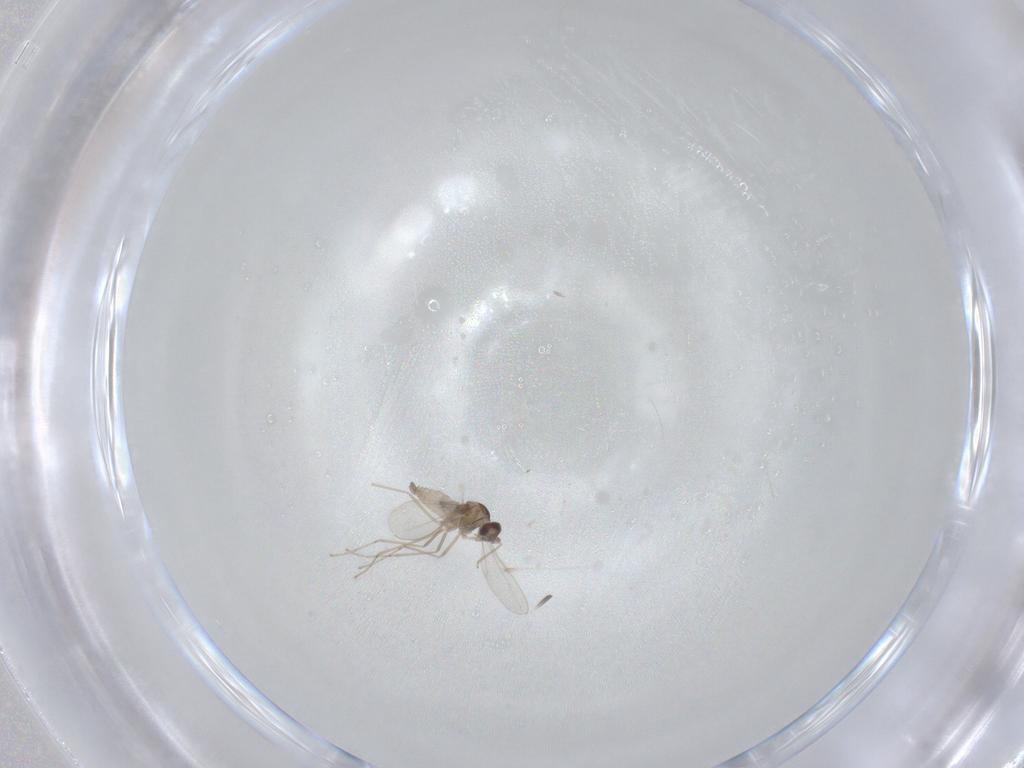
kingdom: Animalia
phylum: Arthropoda
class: Insecta
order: Diptera
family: Cecidomyiidae
